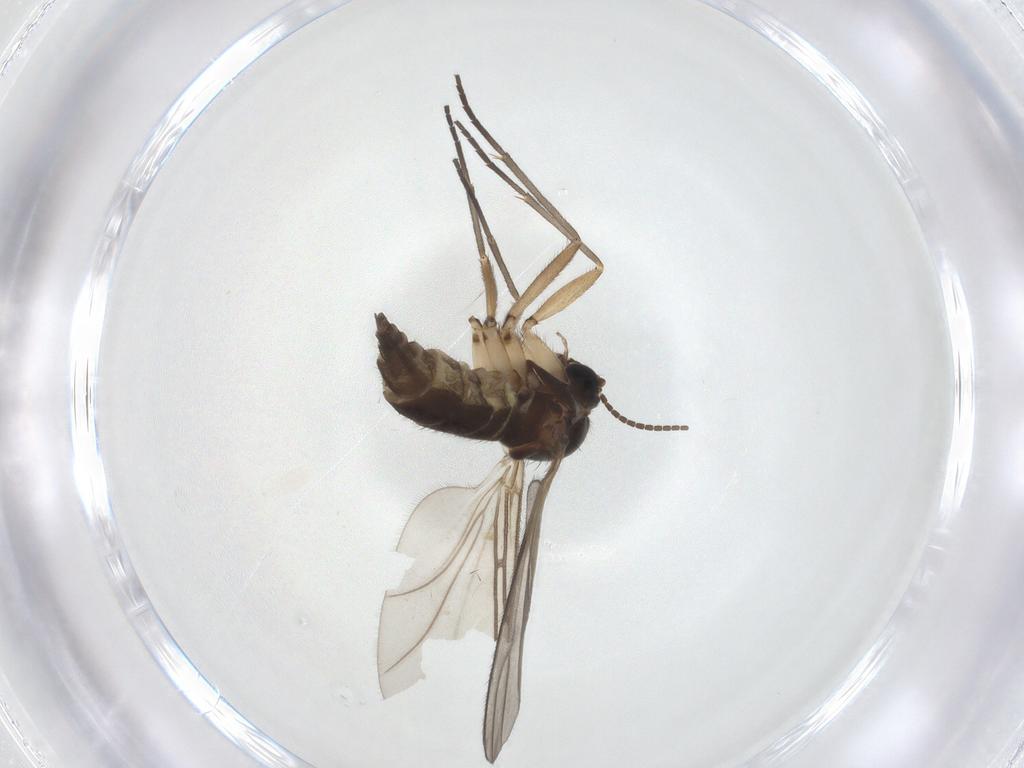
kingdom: Animalia
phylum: Arthropoda
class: Insecta
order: Diptera
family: Sciaridae
